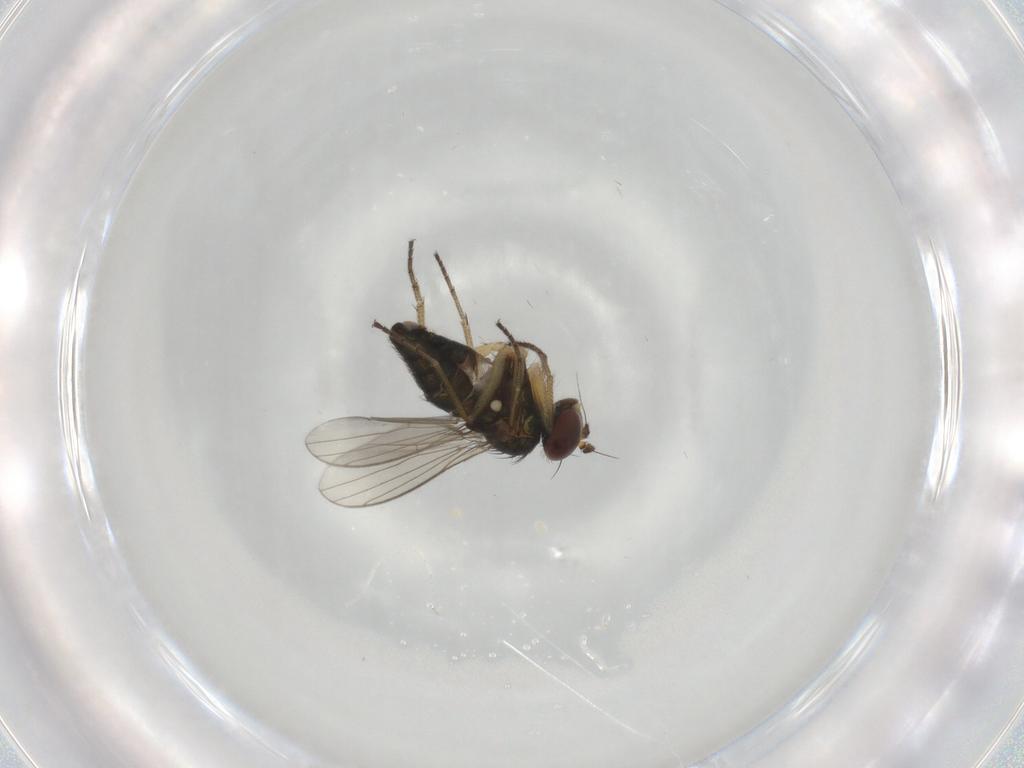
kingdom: Animalia
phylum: Arthropoda
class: Insecta
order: Diptera
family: Dolichopodidae
